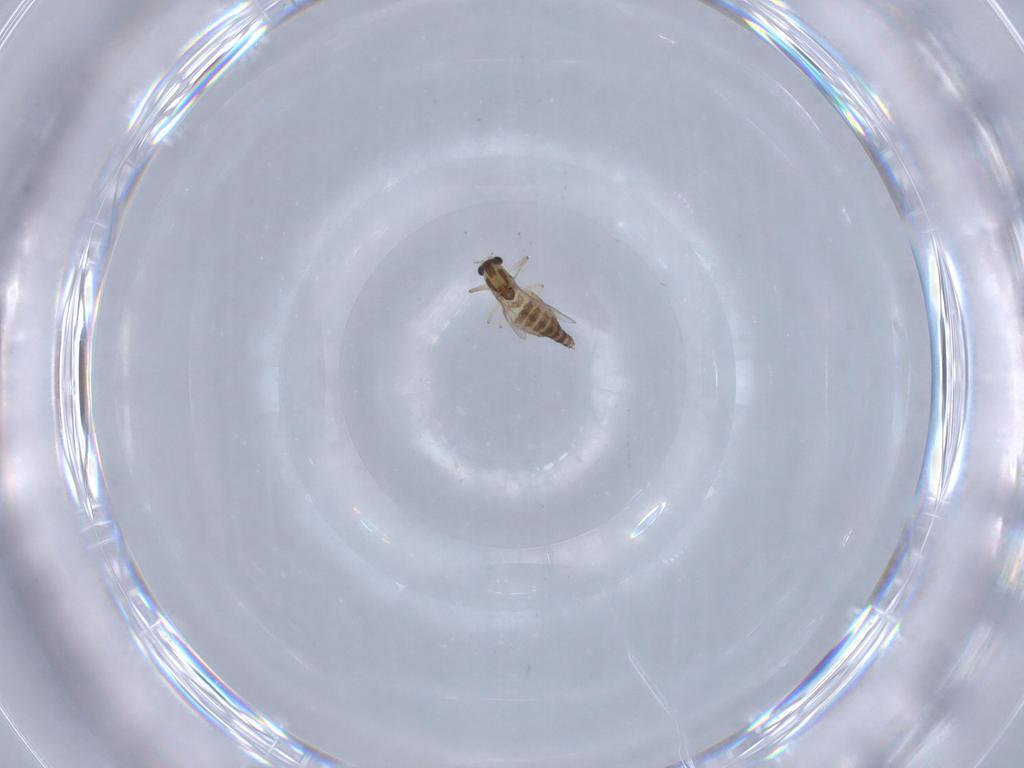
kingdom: Animalia
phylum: Arthropoda
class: Insecta
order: Diptera
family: Chironomidae
